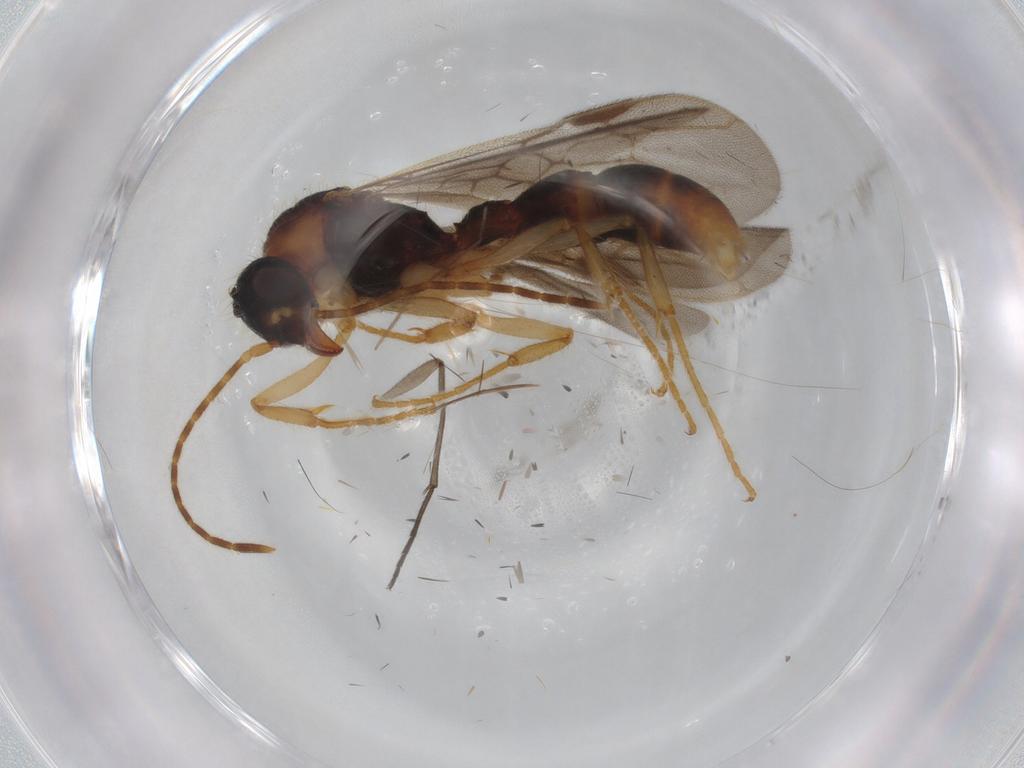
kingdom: Animalia
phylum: Arthropoda
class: Insecta
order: Hymenoptera
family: Formicidae
